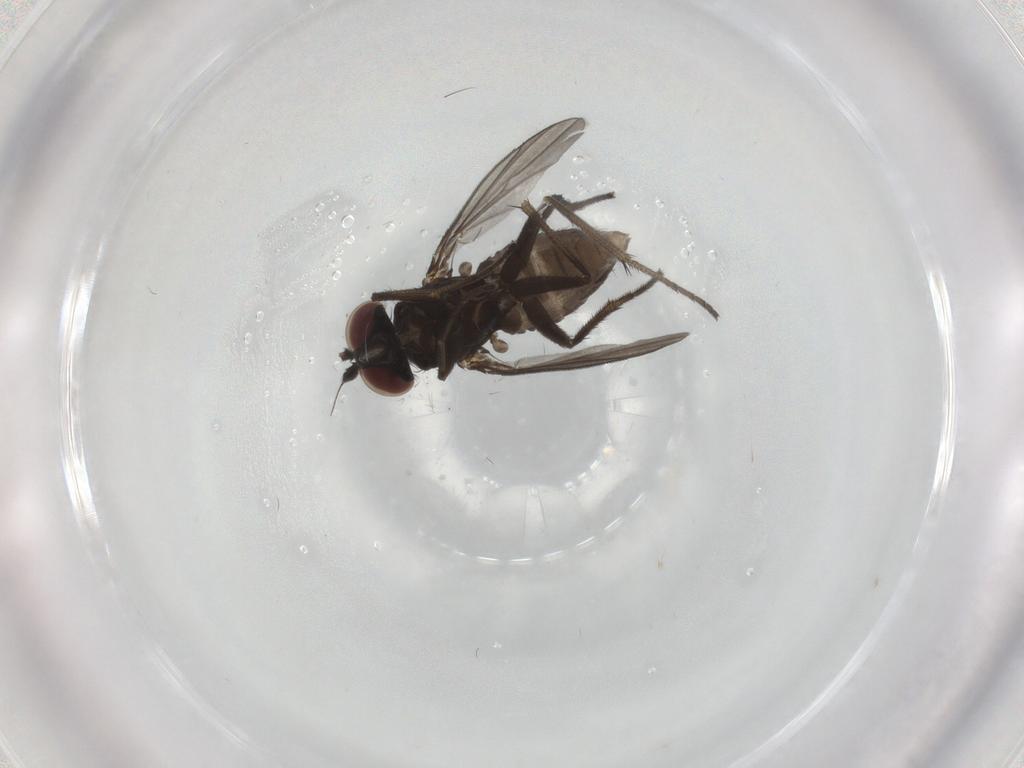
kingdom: Animalia
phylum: Arthropoda
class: Insecta
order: Diptera
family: Dolichopodidae
